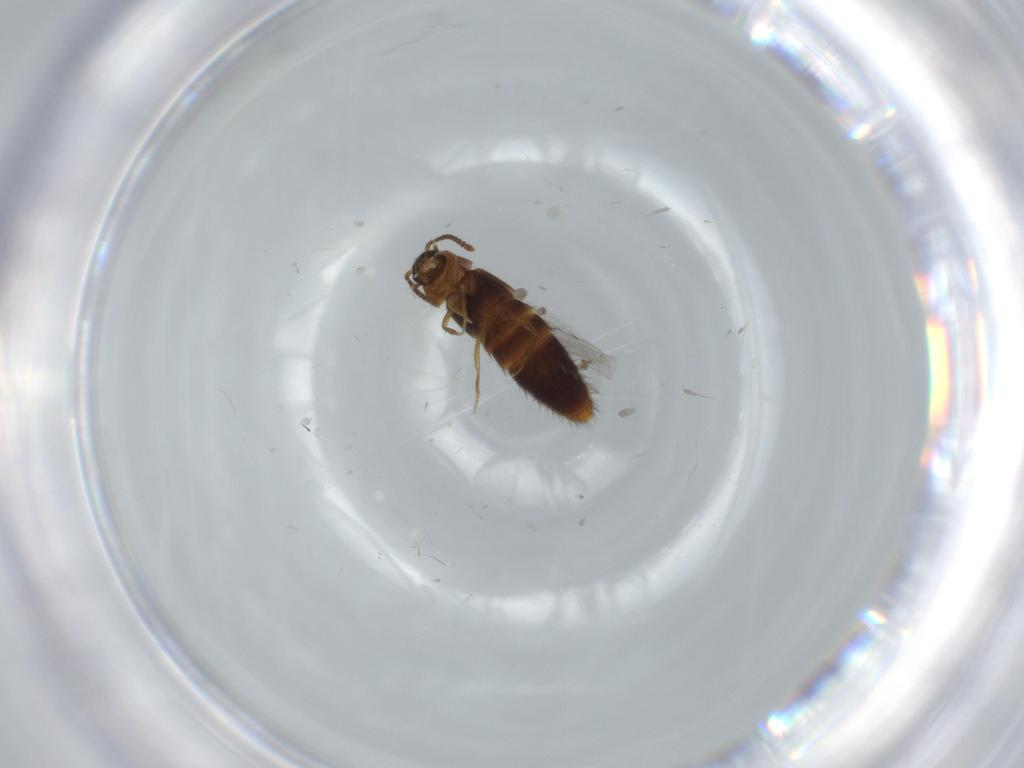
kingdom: Animalia
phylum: Arthropoda
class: Insecta
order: Coleoptera
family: Staphylinidae
